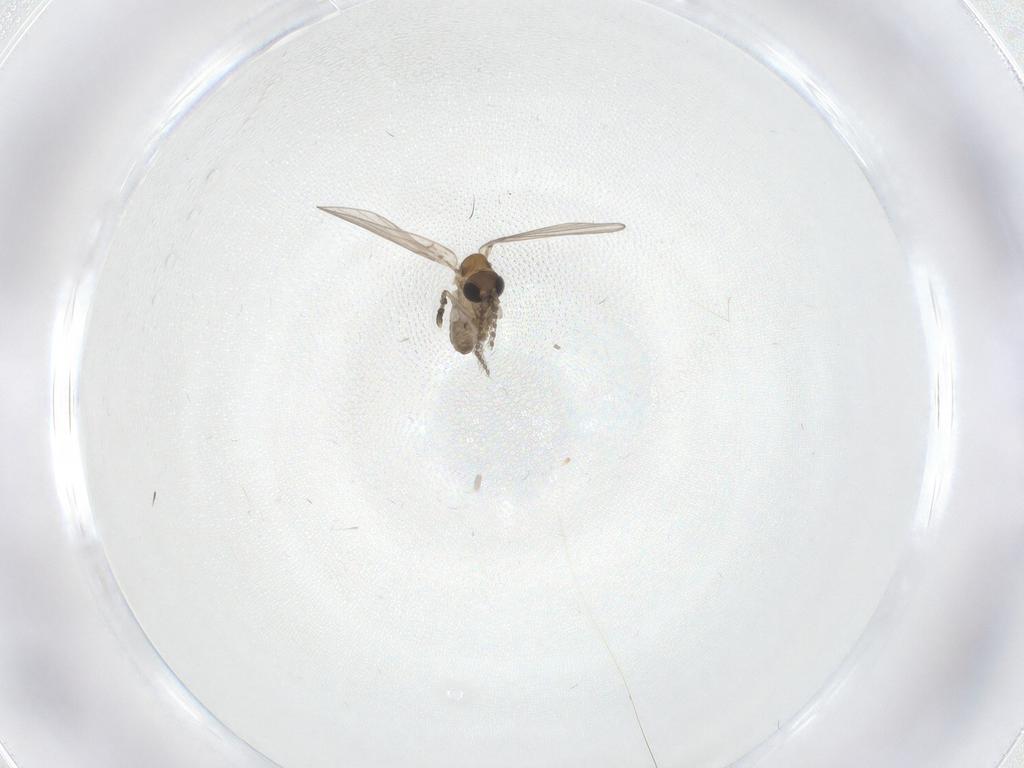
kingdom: Animalia
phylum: Arthropoda
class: Insecta
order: Diptera
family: Psychodidae
